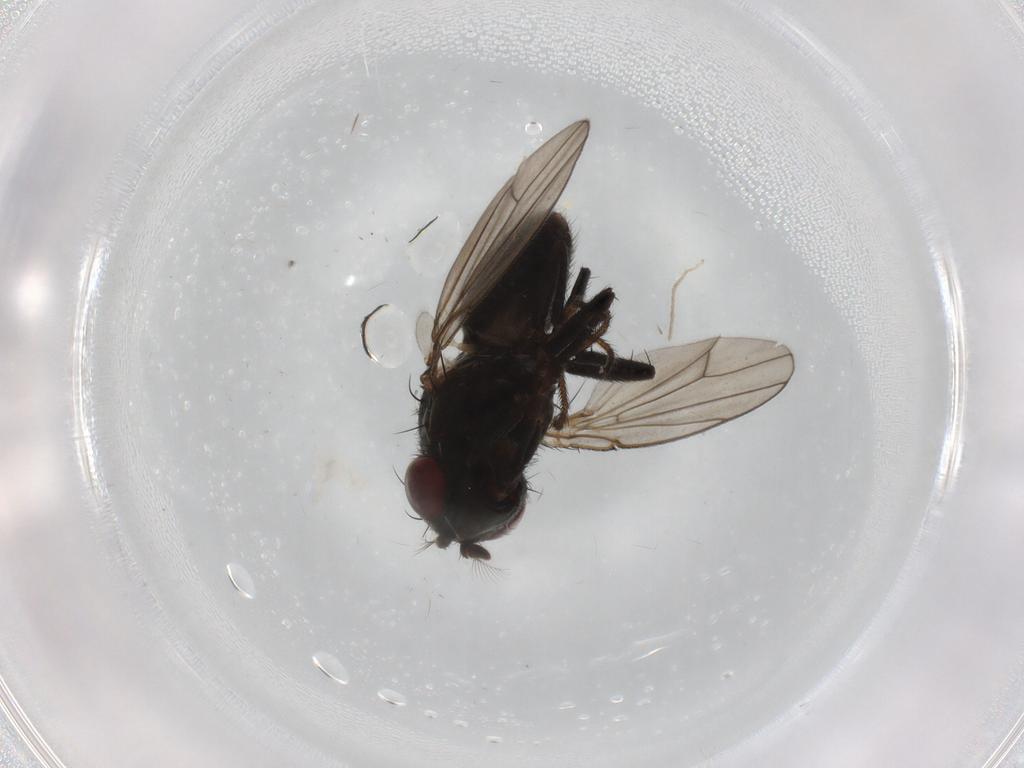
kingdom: Animalia
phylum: Arthropoda
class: Insecta
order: Diptera
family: Ephydridae
